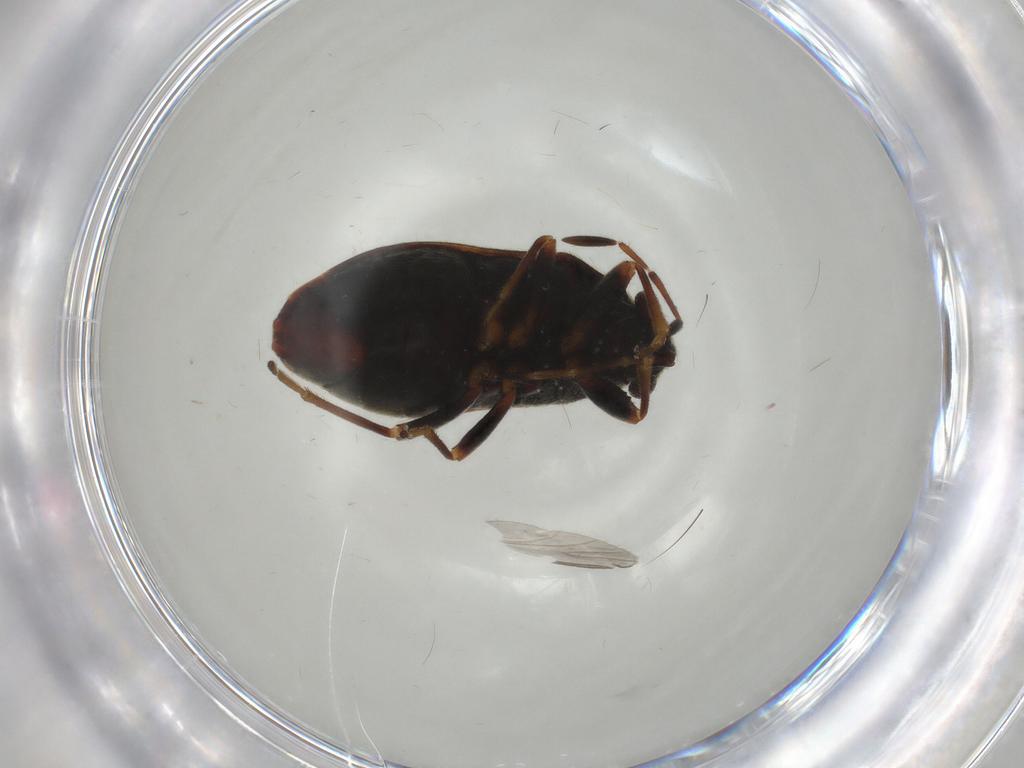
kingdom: Animalia
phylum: Arthropoda
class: Insecta
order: Hemiptera
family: Rhyparochromidae
